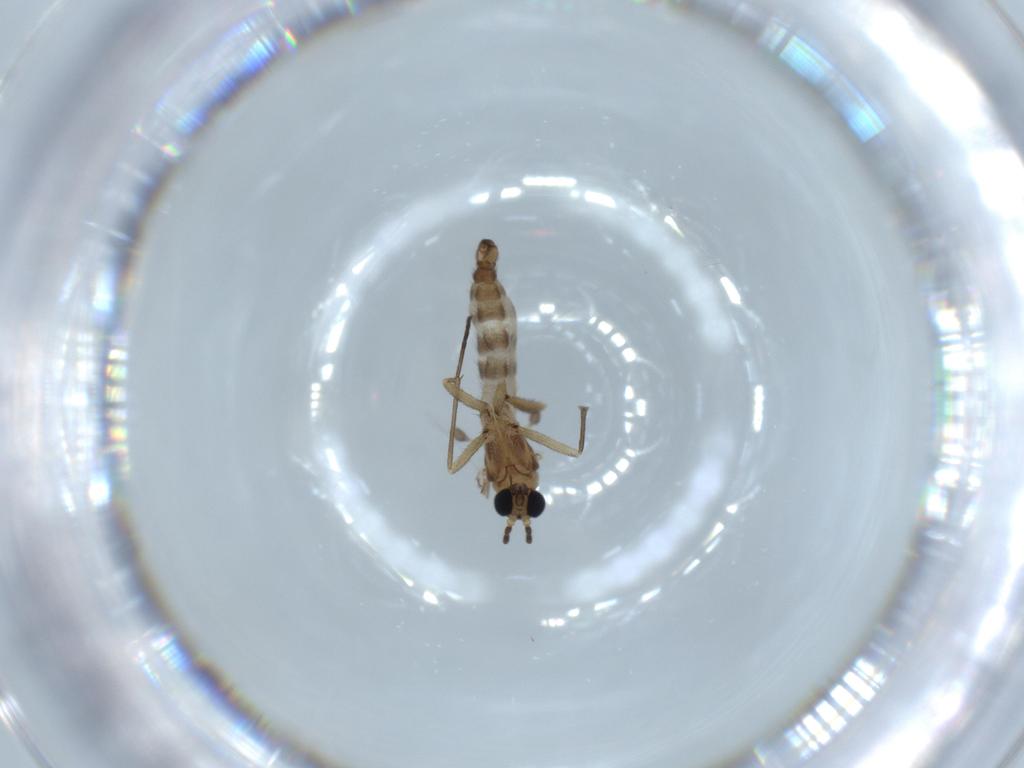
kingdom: Animalia
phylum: Arthropoda
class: Insecta
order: Diptera
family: Sciaridae
